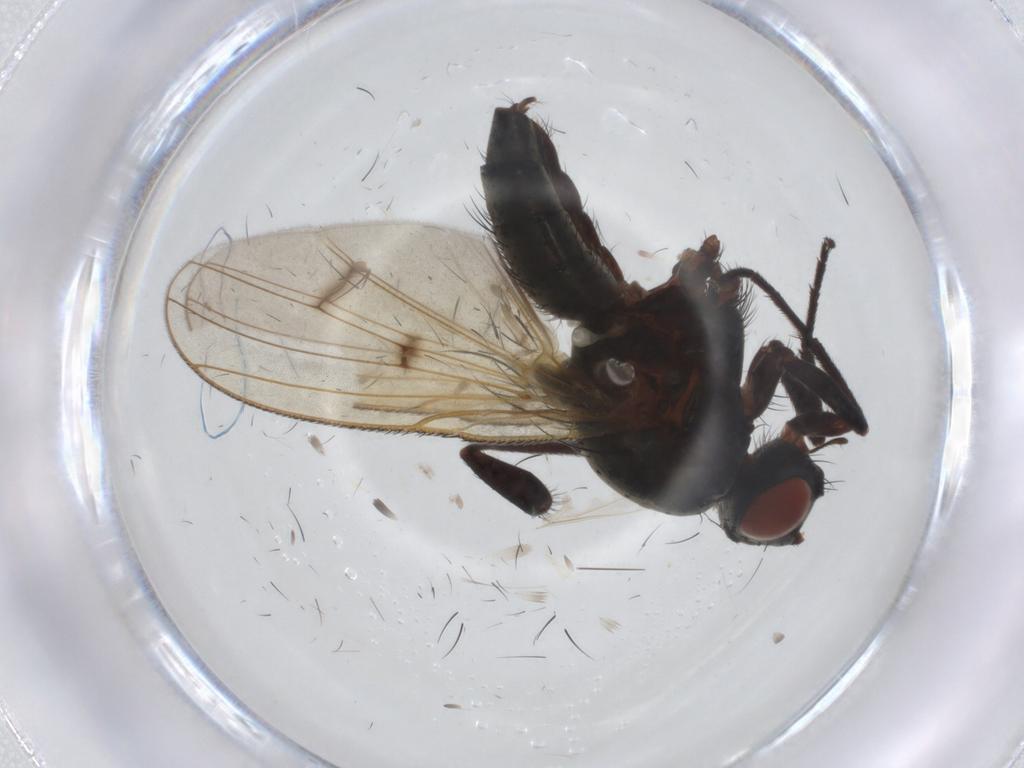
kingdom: Animalia
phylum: Arthropoda
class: Insecta
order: Diptera
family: Anthomyiidae
